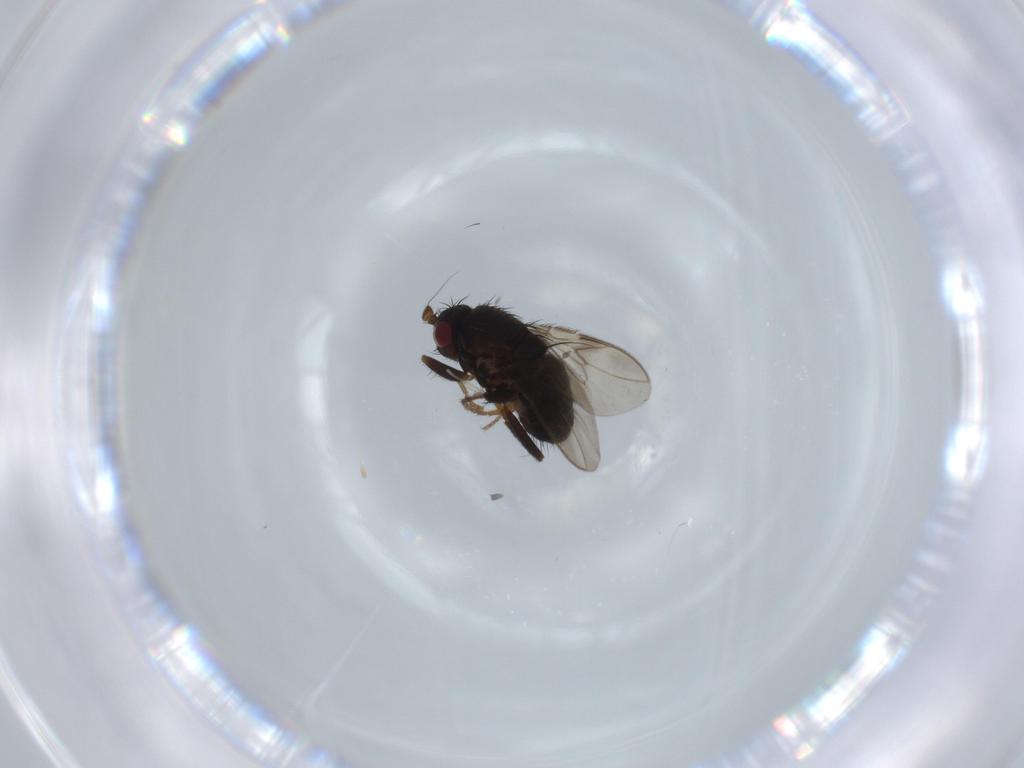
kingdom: Animalia
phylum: Arthropoda
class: Insecta
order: Diptera
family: Sphaeroceridae
